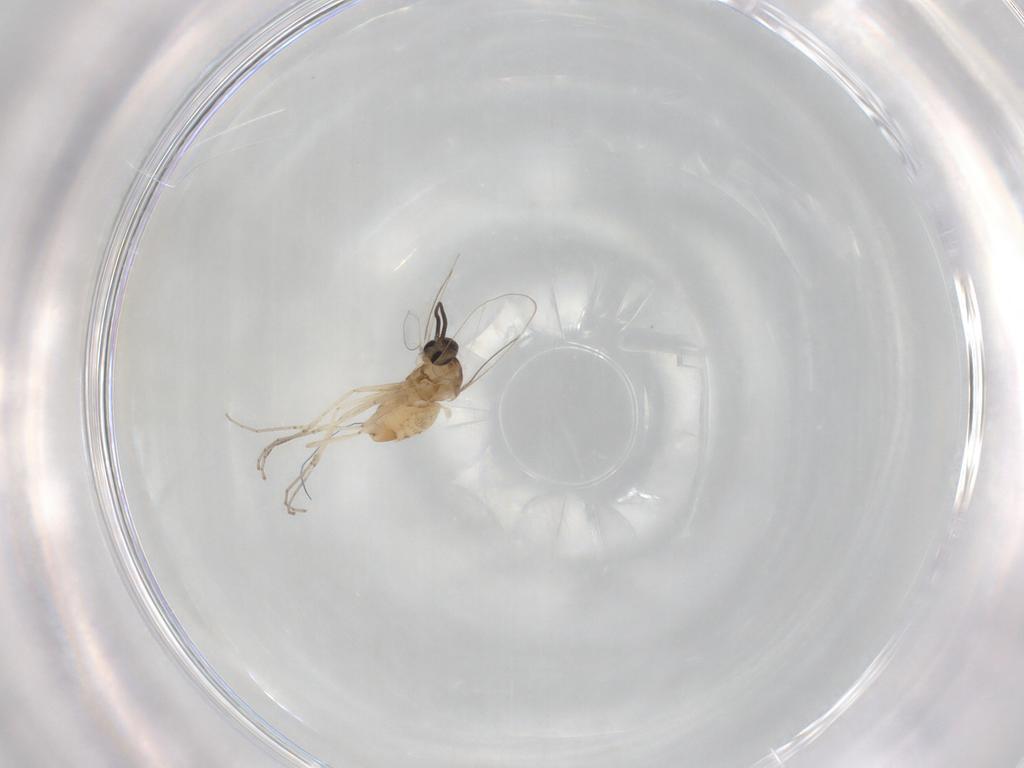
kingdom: Animalia
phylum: Arthropoda
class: Insecta
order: Diptera
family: Cecidomyiidae
